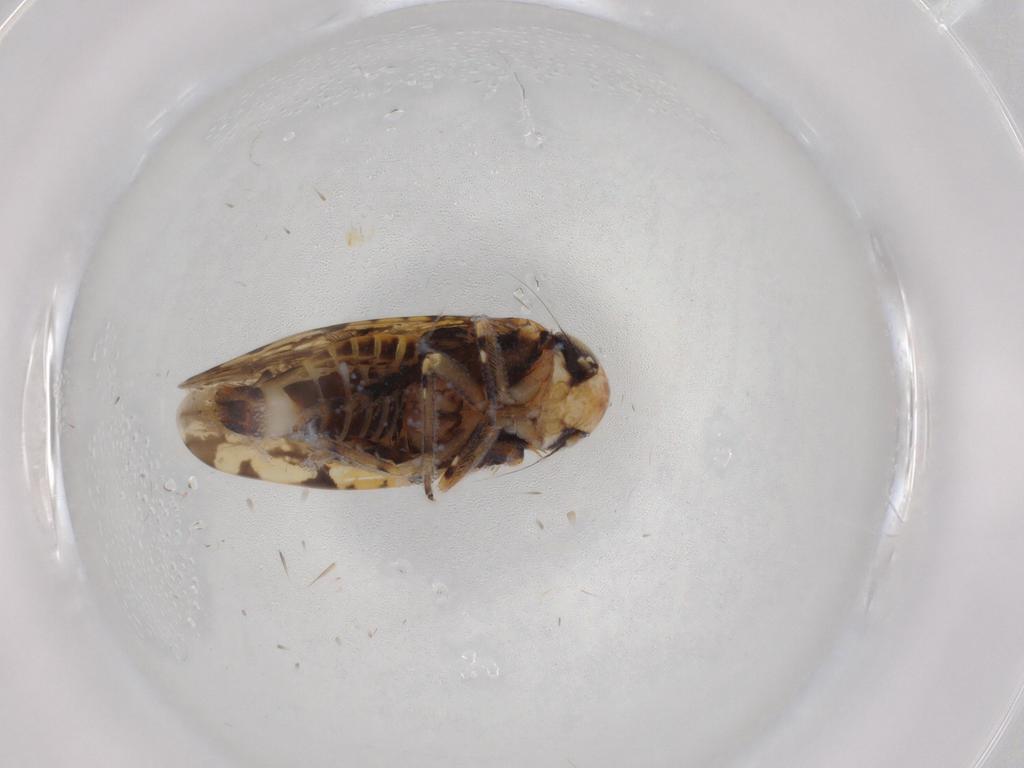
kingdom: Animalia
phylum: Arthropoda
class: Insecta
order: Hemiptera
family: Cicadellidae
